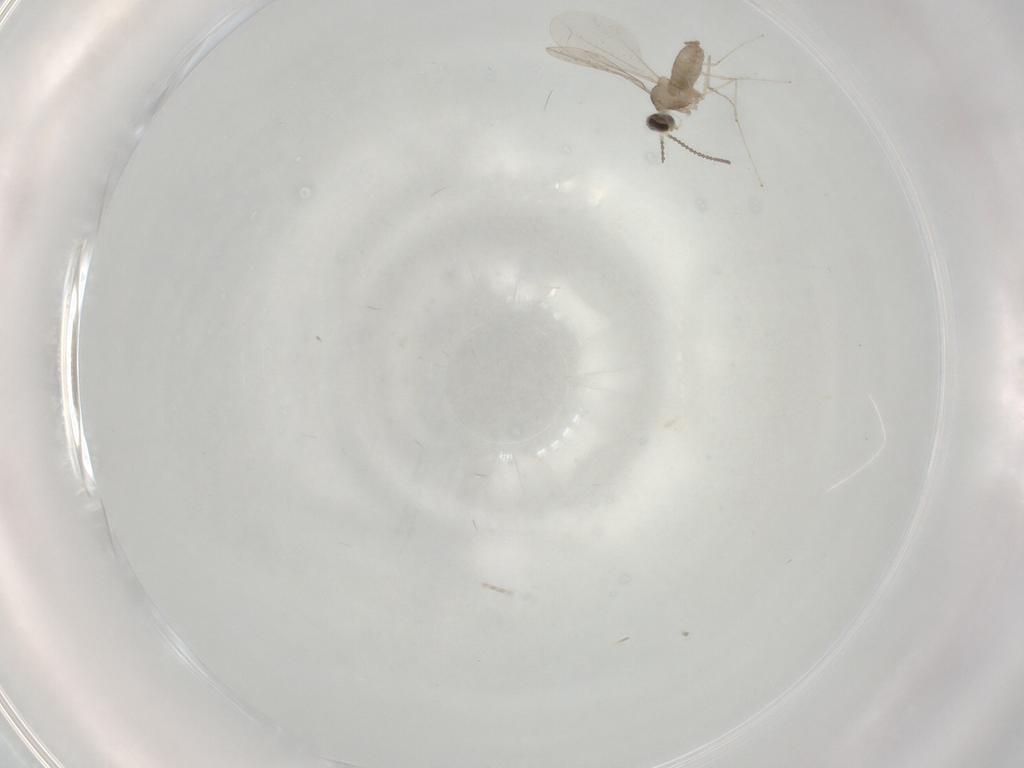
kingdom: Animalia
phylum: Arthropoda
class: Insecta
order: Diptera
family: Cecidomyiidae
